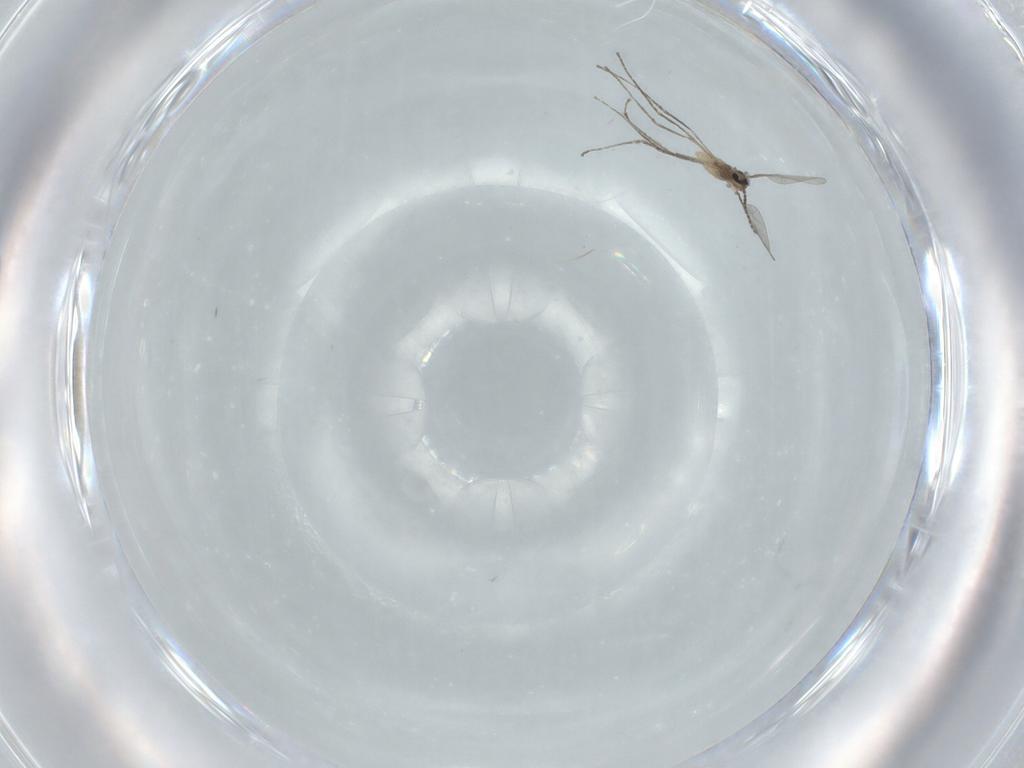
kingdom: Animalia
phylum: Arthropoda
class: Insecta
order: Diptera
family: Cecidomyiidae
